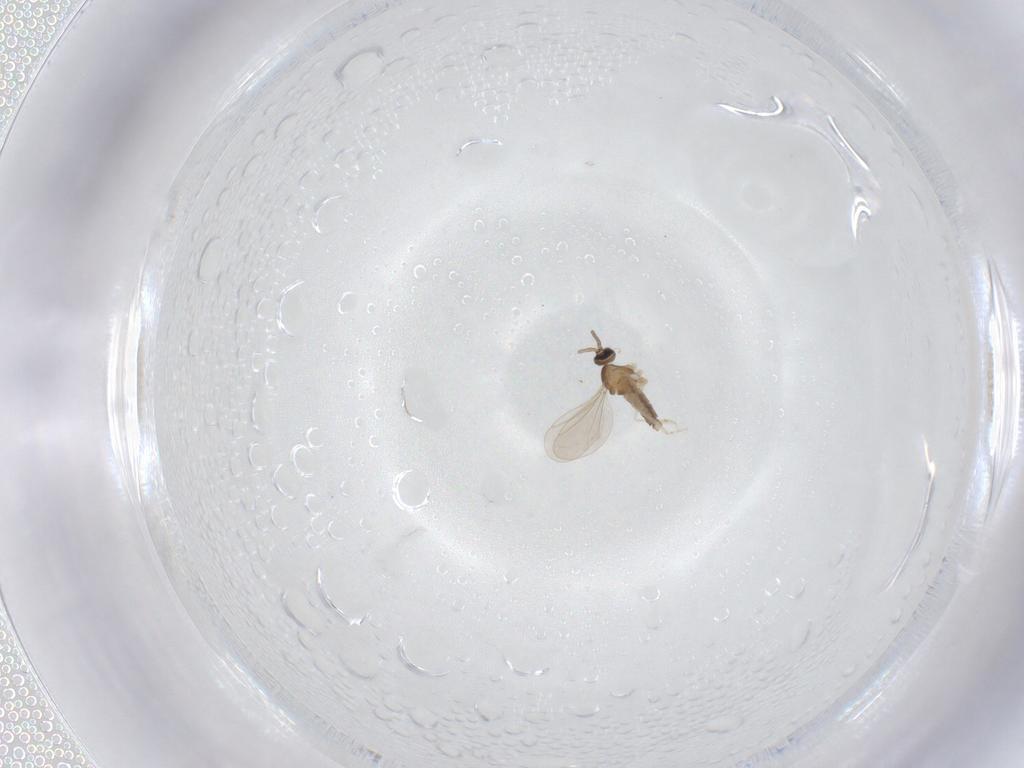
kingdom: Animalia
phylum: Arthropoda
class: Insecta
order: Diptera
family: Cecidomyiidae
